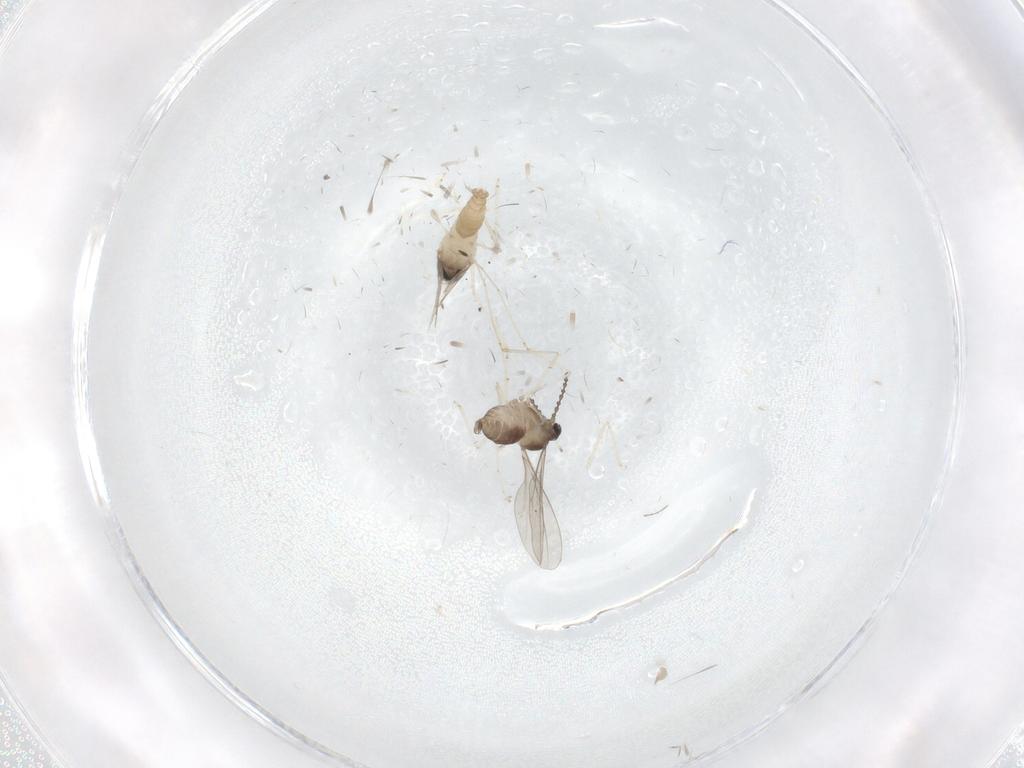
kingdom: Animalia
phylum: Arthropoda
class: Insecta
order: Diptera
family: Cecidomyiidae
